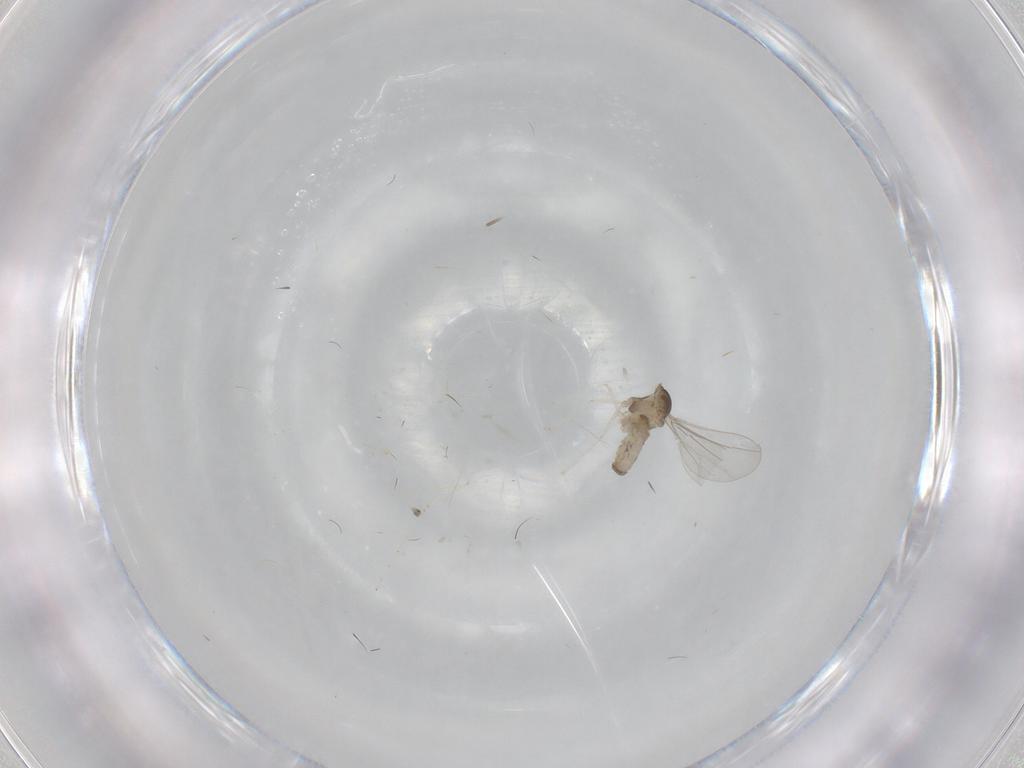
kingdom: Animalia
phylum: Arthropoda
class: Insecta
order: Diptera
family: Cecidomyiidae
